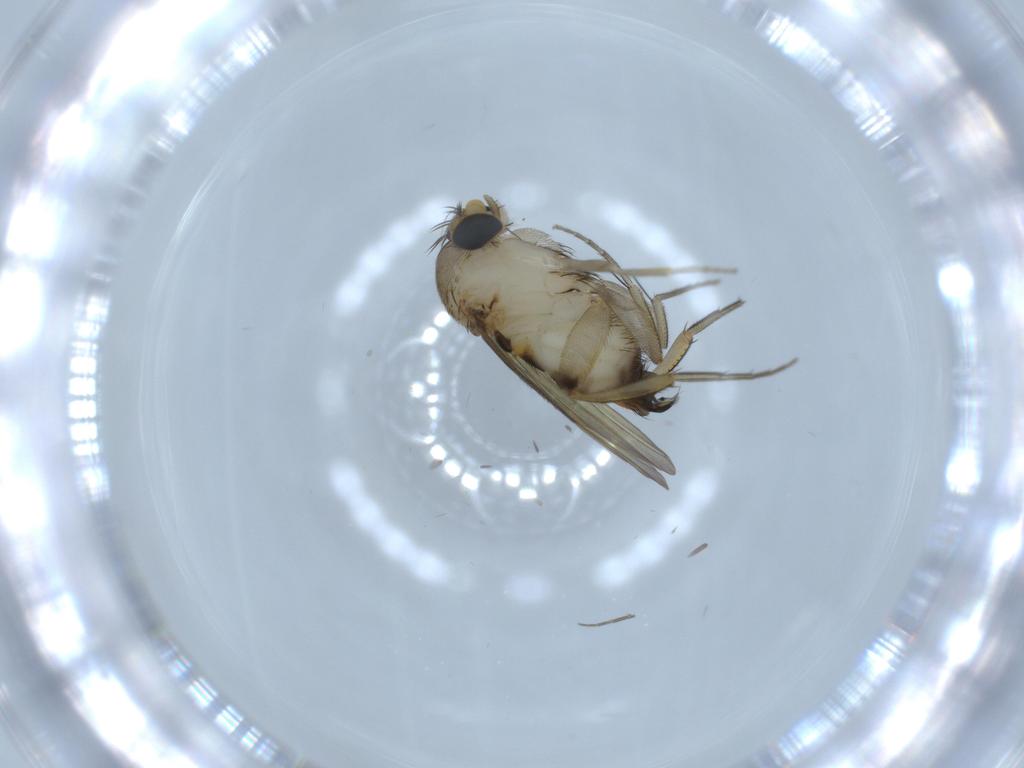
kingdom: Animalia
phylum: Arthropoda
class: Insecta
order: Diptera
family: Phoridae
